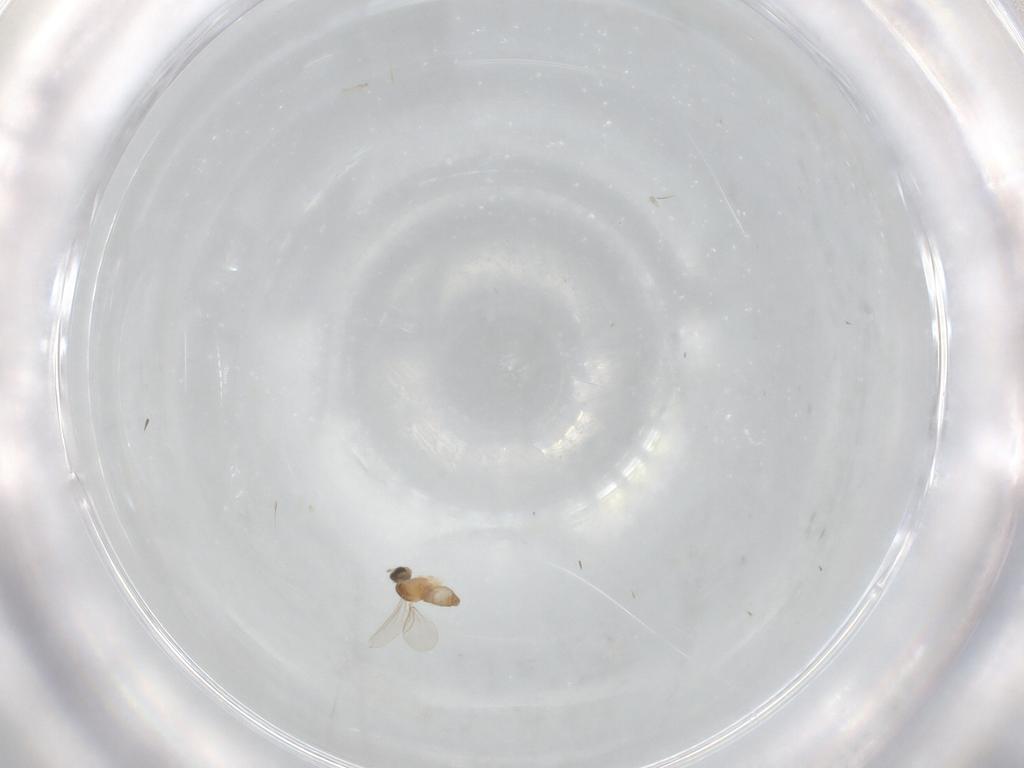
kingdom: Animalia
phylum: Arthropoda
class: Insecta
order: Diptera
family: Cecidomyiidae
